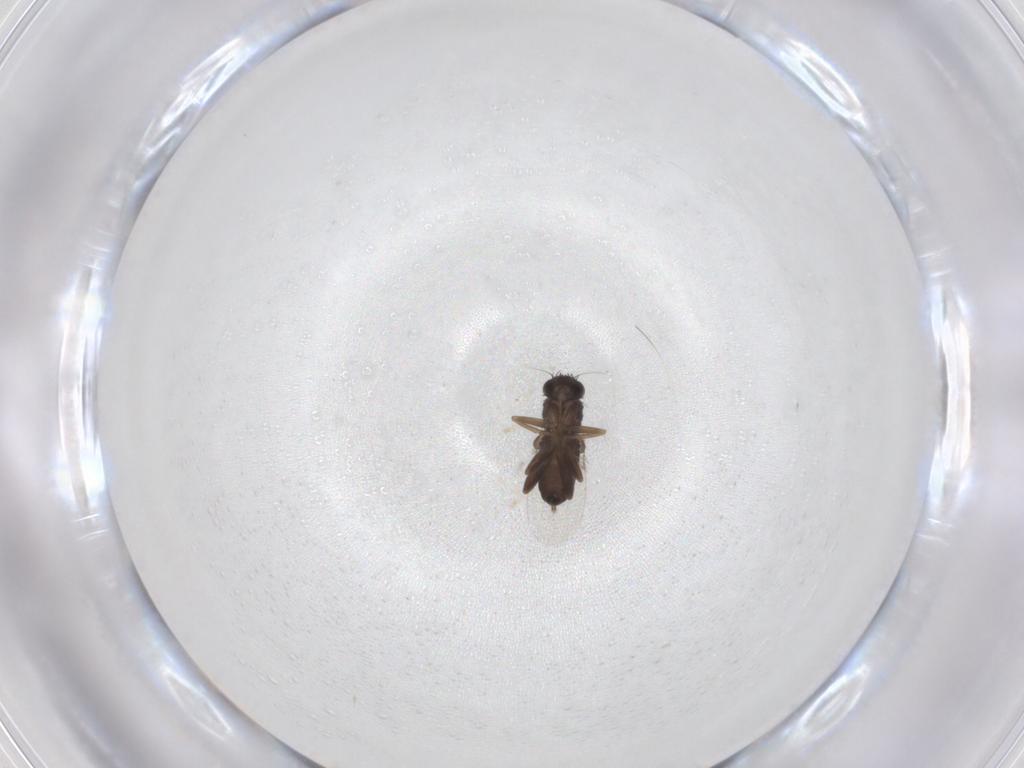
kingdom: Animalia
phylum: Arthropoda
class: Insecta
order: Diptera
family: Phoridae
